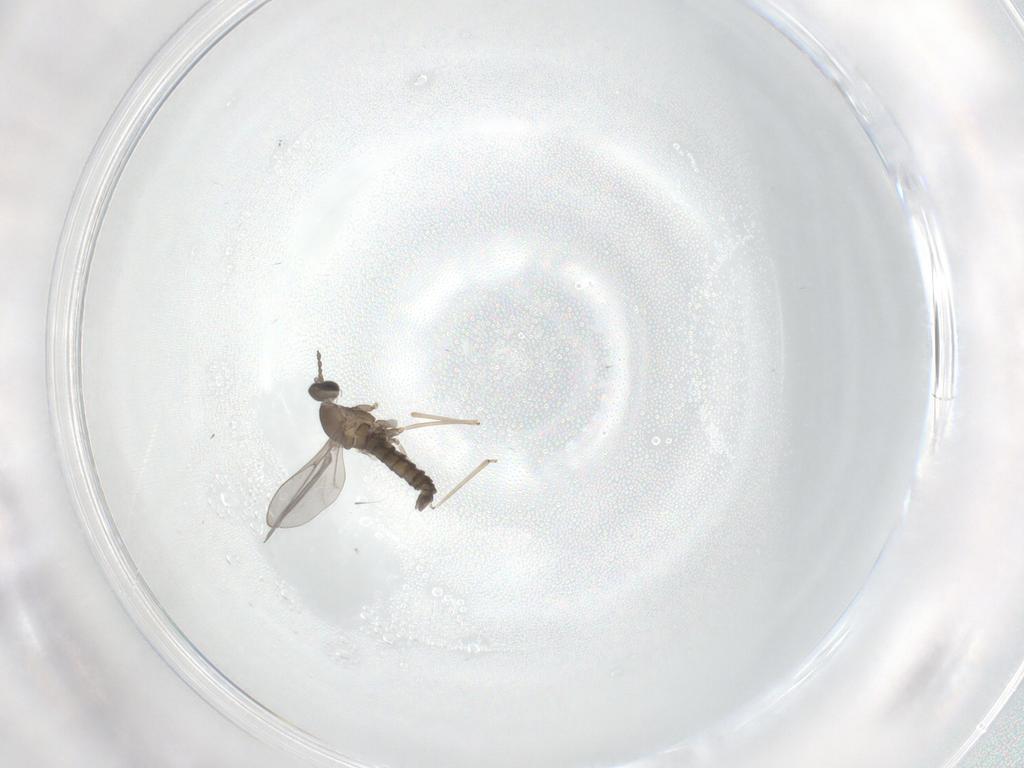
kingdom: Animalia
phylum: Arthropoda
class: Insecta
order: Diptera
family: Cecidomyiidae
